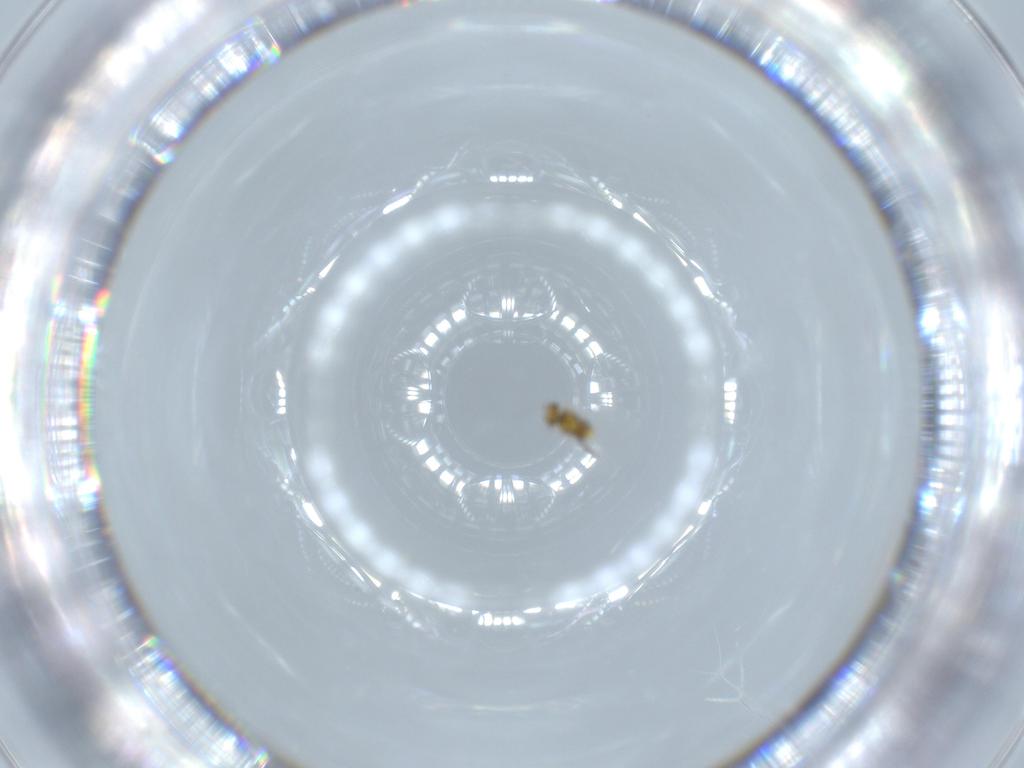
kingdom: Animalia
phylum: Arthropoda
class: Insecta
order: Hymenoptera
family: Aphelinidae
